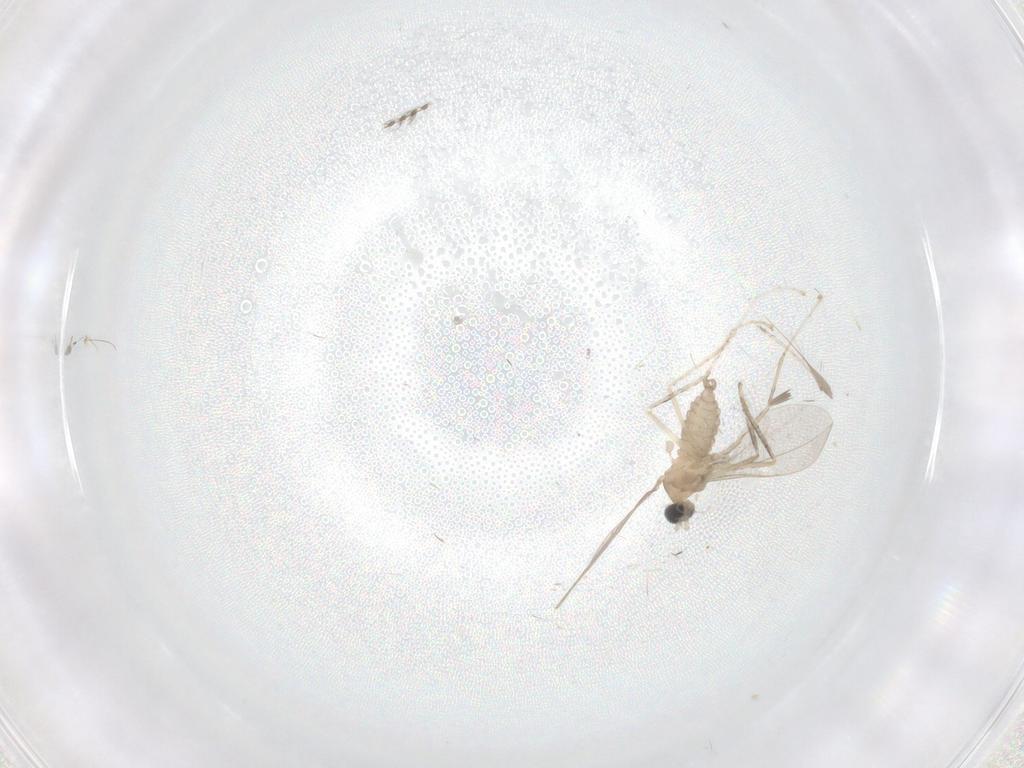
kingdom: Animalia
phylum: Arthropoda
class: Insecta
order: Diptera
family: Cecidomyiidae
